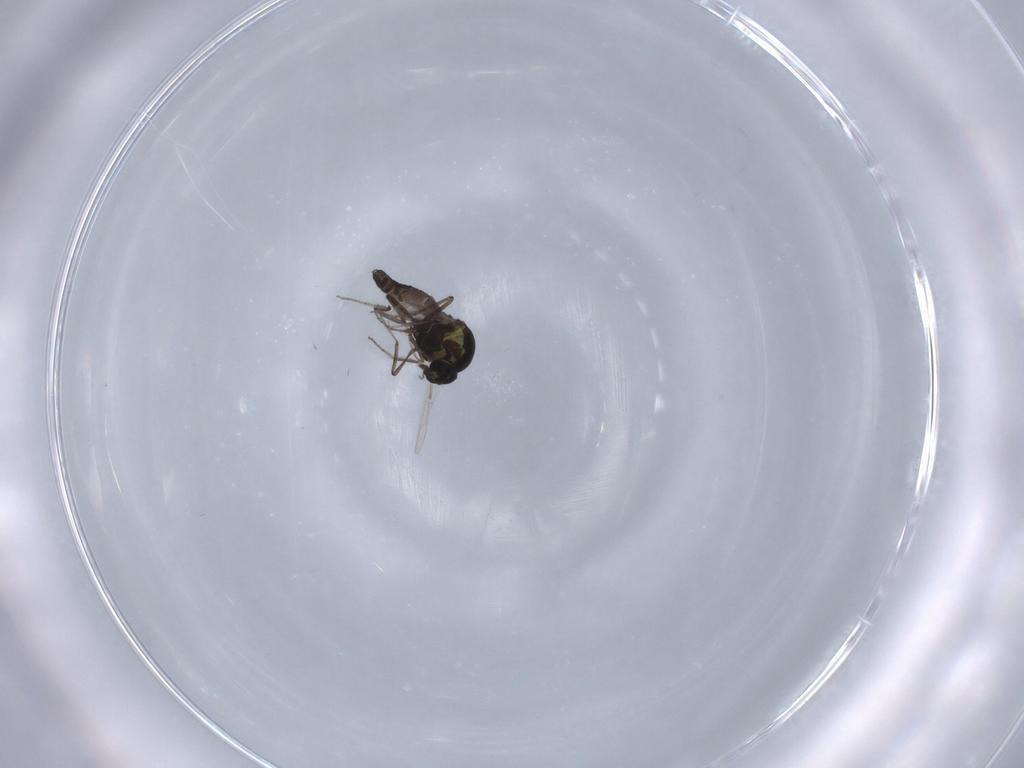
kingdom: Animalia
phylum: Arthropoda
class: Insecta
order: Diptera
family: Ceratopogonidae
